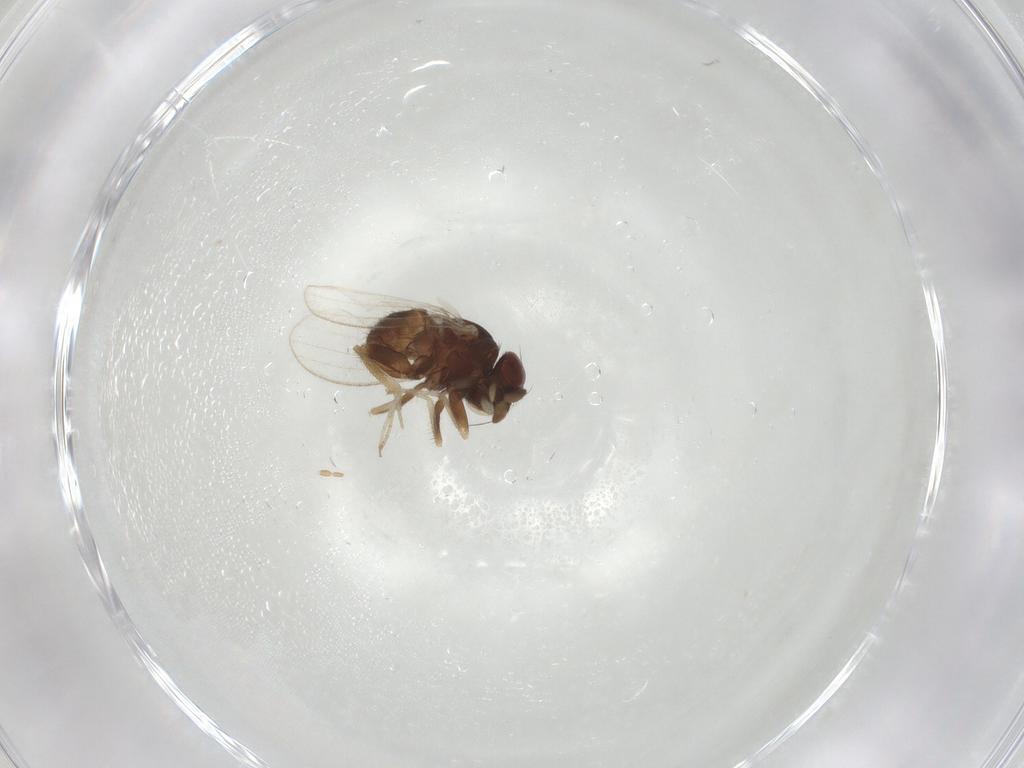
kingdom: Animalia
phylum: Arthropoda
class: Insecta
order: Diptera
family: Milichiidae
